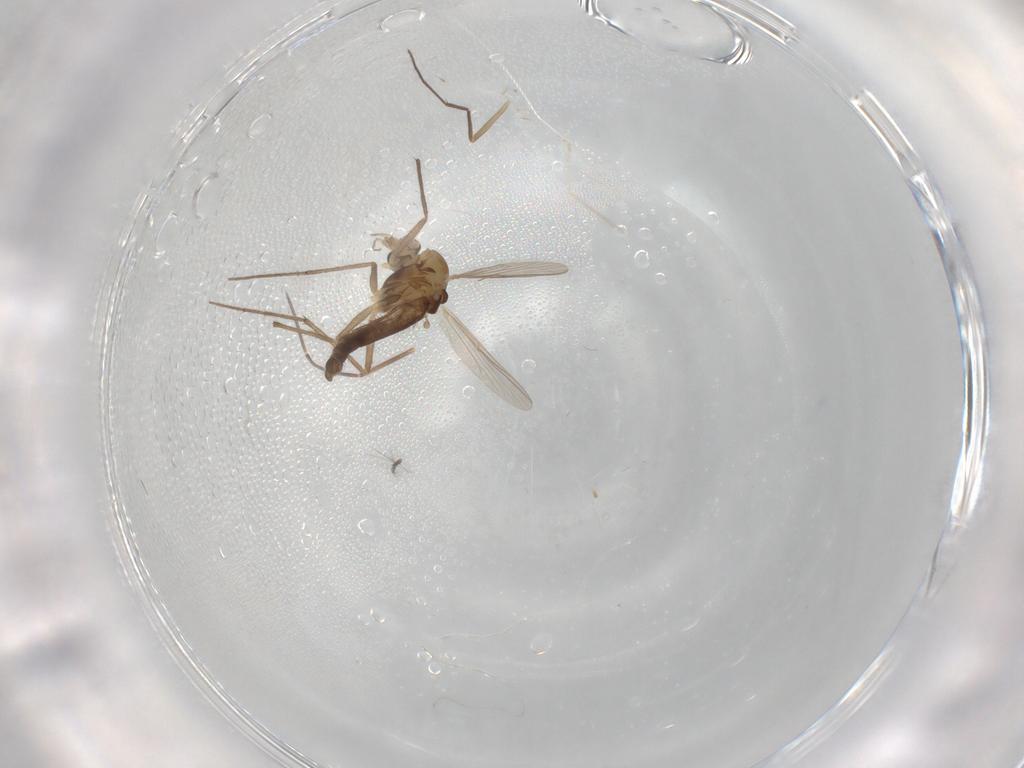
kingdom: Animalia
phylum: Arthropoda
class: Insecta
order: Diptera
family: Chironomidae
